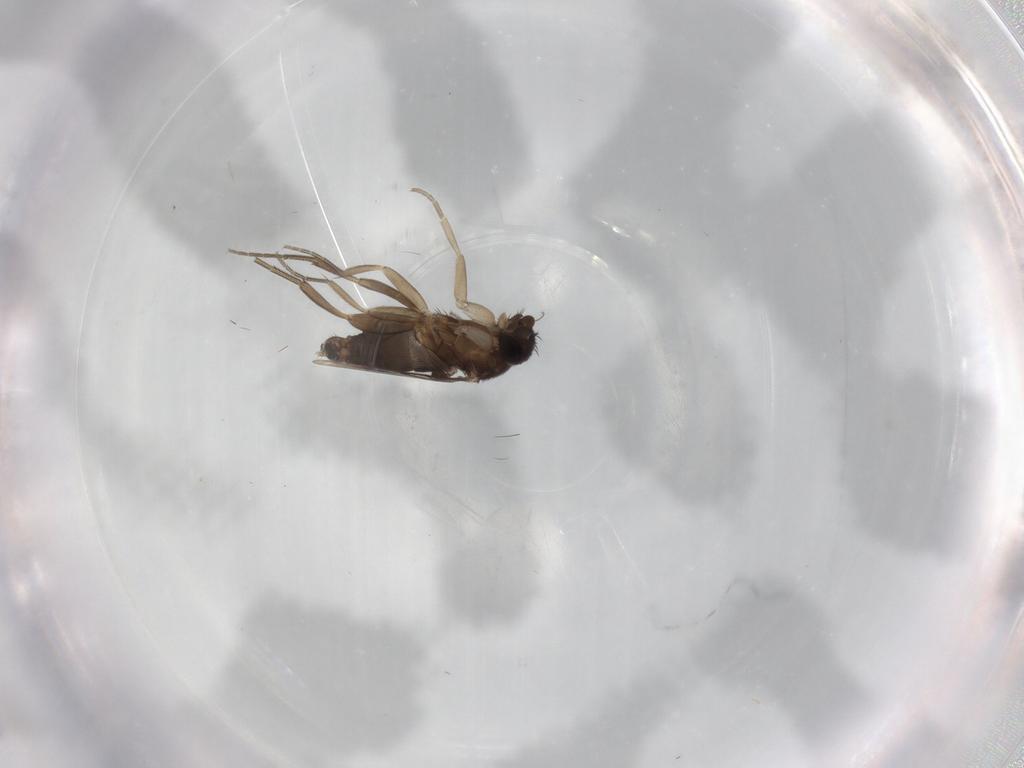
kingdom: Animalia
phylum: Arthropoda
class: Insecta
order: Diptera
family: Phoridae
